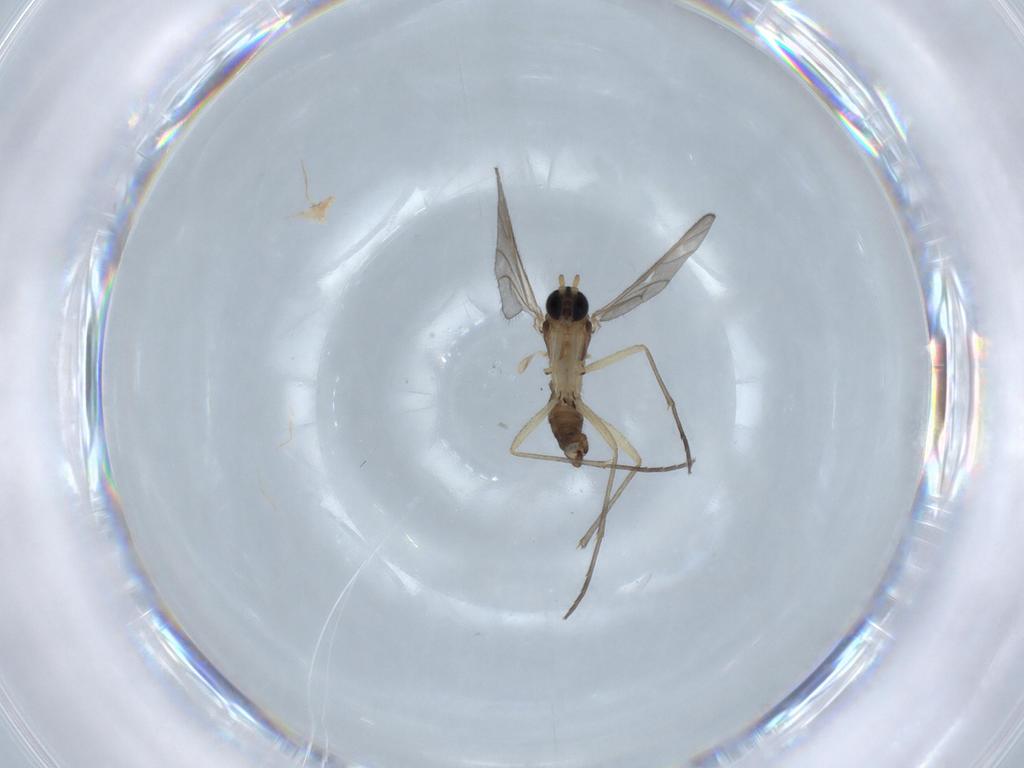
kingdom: Animalia
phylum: Arthropoda
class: Insecta
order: Diptera
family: Sciaridae
